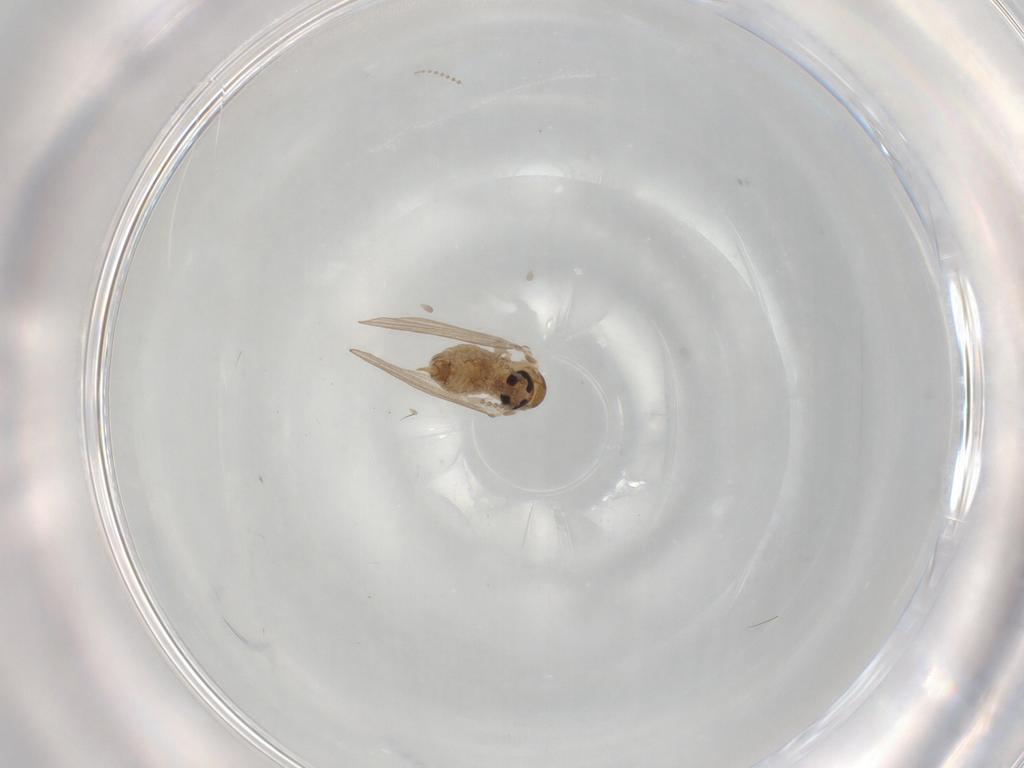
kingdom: Animalia
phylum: Arthropoda
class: Insecta
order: Diptera
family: Psychodidae
